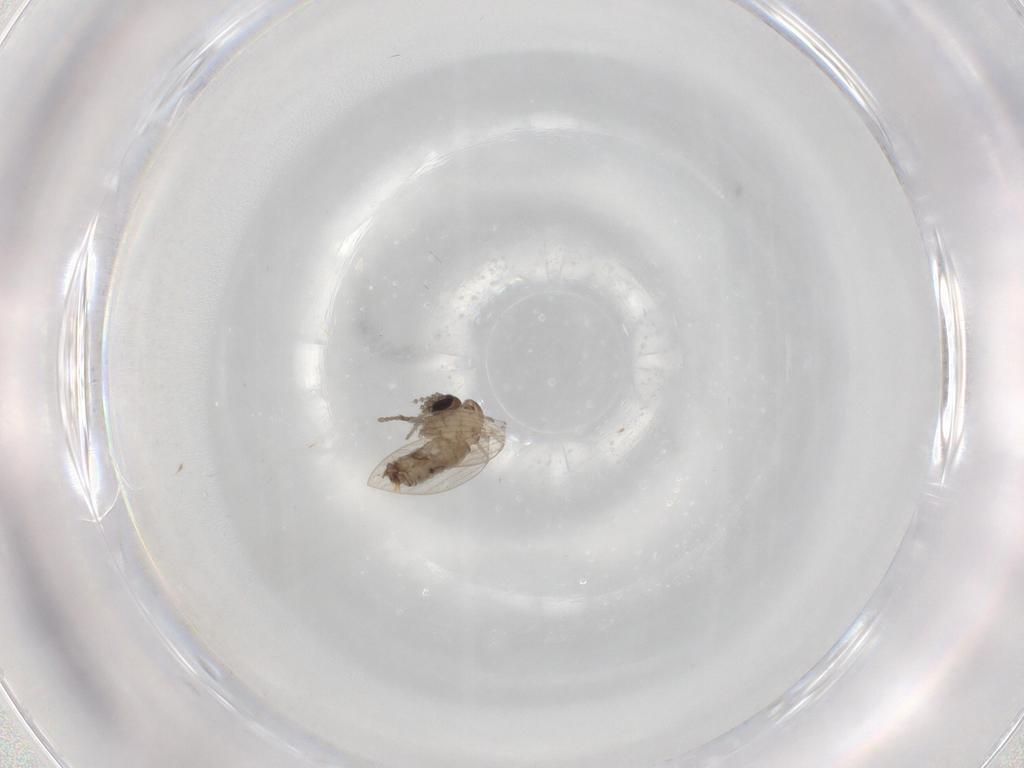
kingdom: Animalia
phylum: Arthropoda
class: Insecta
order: Diptera
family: Psychodidae
